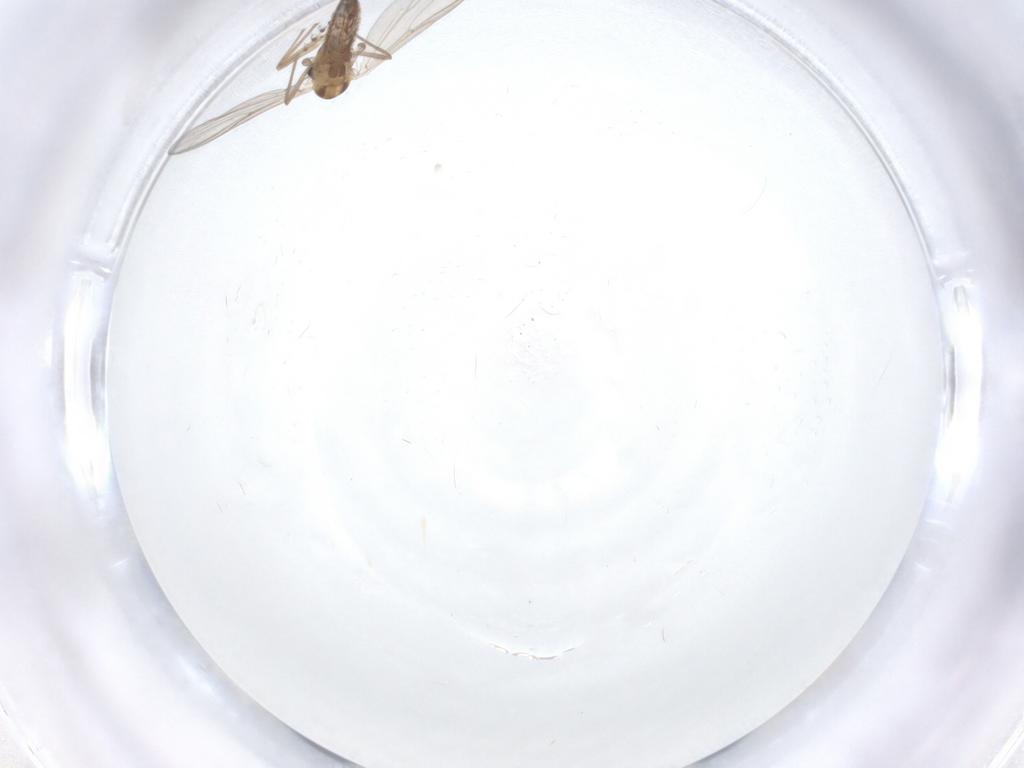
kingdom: Animalia
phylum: Arthropoda
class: Insecta
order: Diptera
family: Chironomidae
